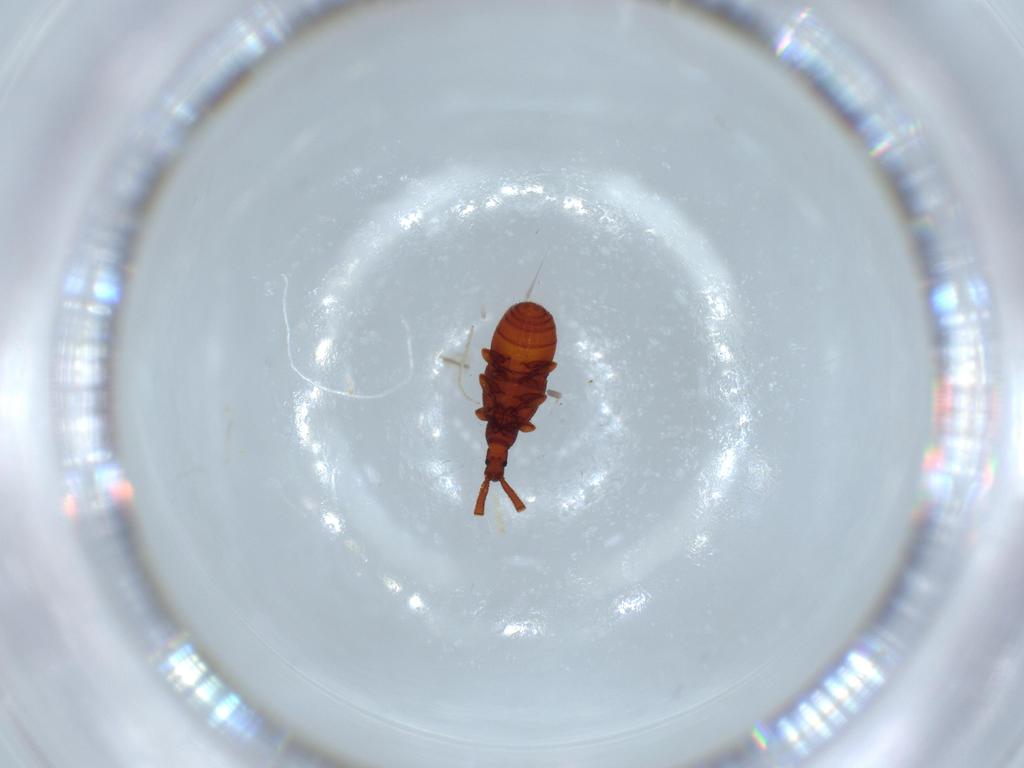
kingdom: Animalia
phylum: Arthropoda
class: Insecta
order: Coleoptera
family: Staphylinidae
